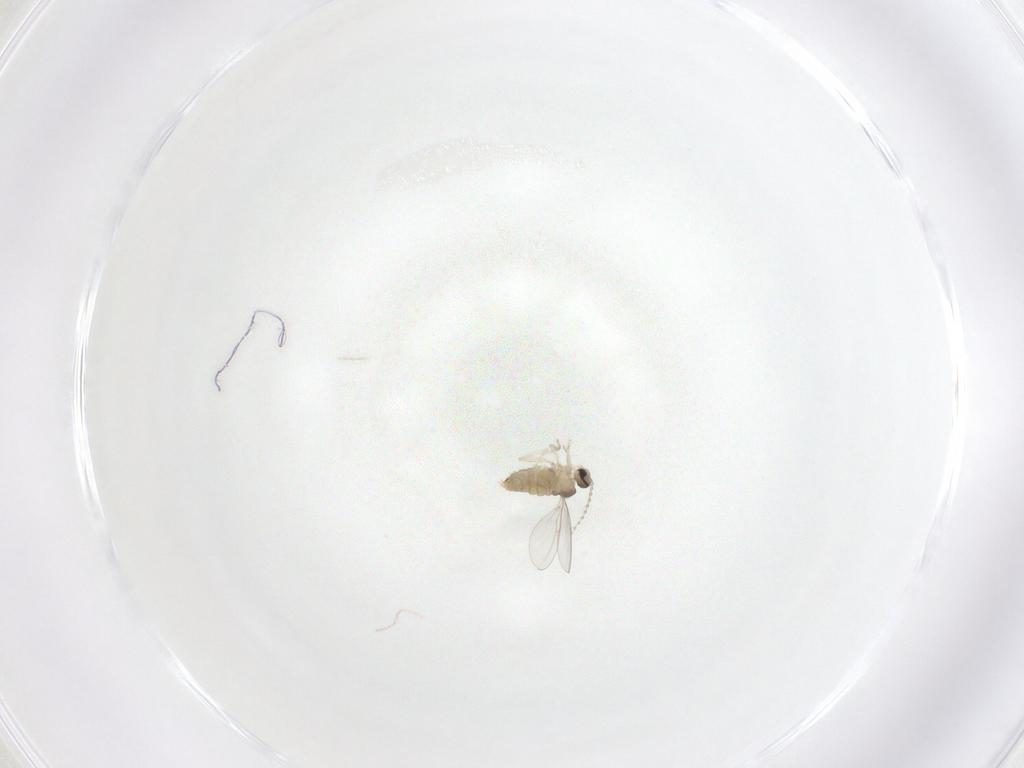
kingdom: Animalia
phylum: Arthropoda
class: Insecta
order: Diptera
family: Cecidomyiidae
